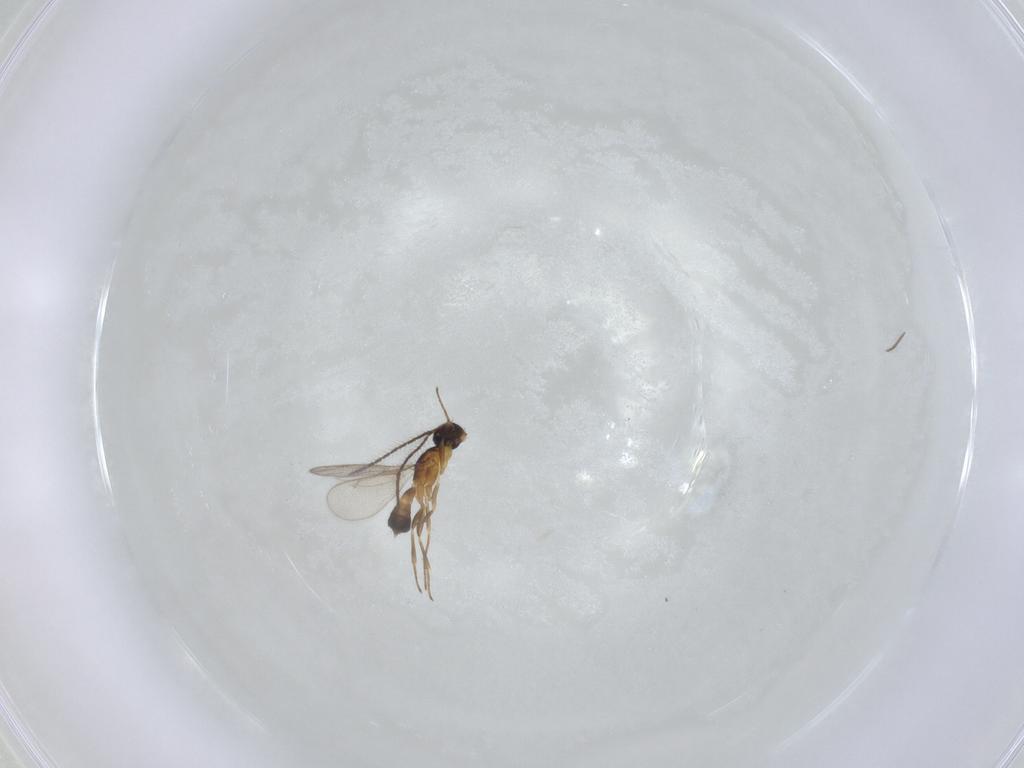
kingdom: Animalia
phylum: Arthropoda
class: Insecta
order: Hymenoptera
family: Eupelmidae
